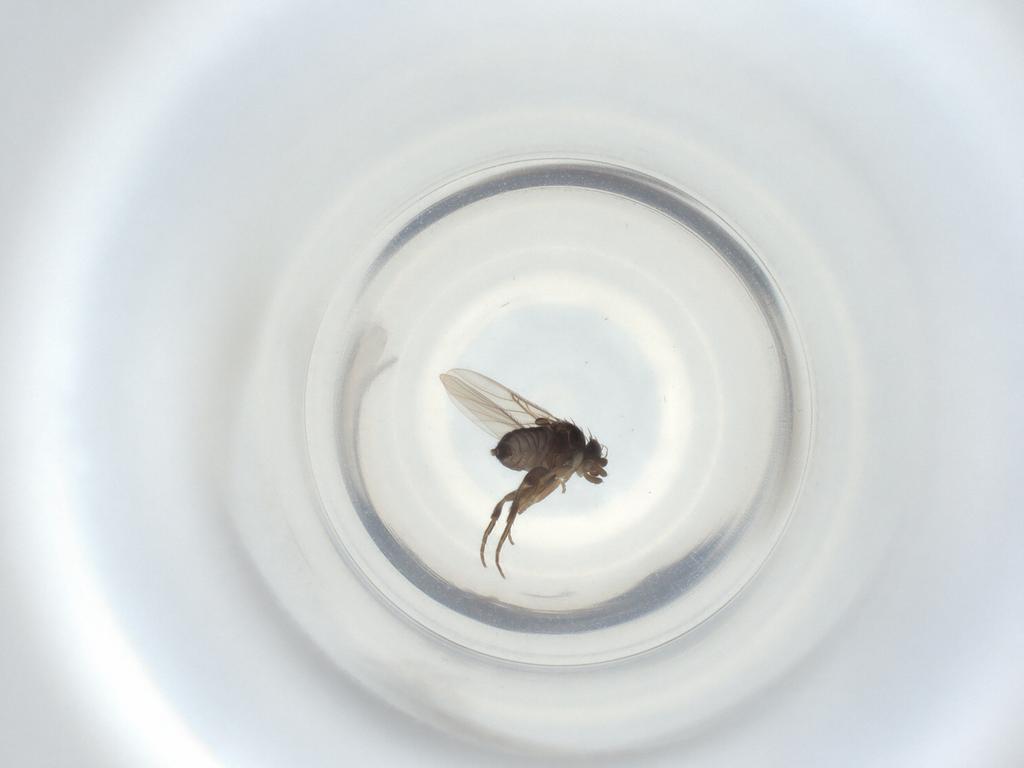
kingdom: Animalia
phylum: Arthropoda
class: Insecta
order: Diptera
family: Phoridae
